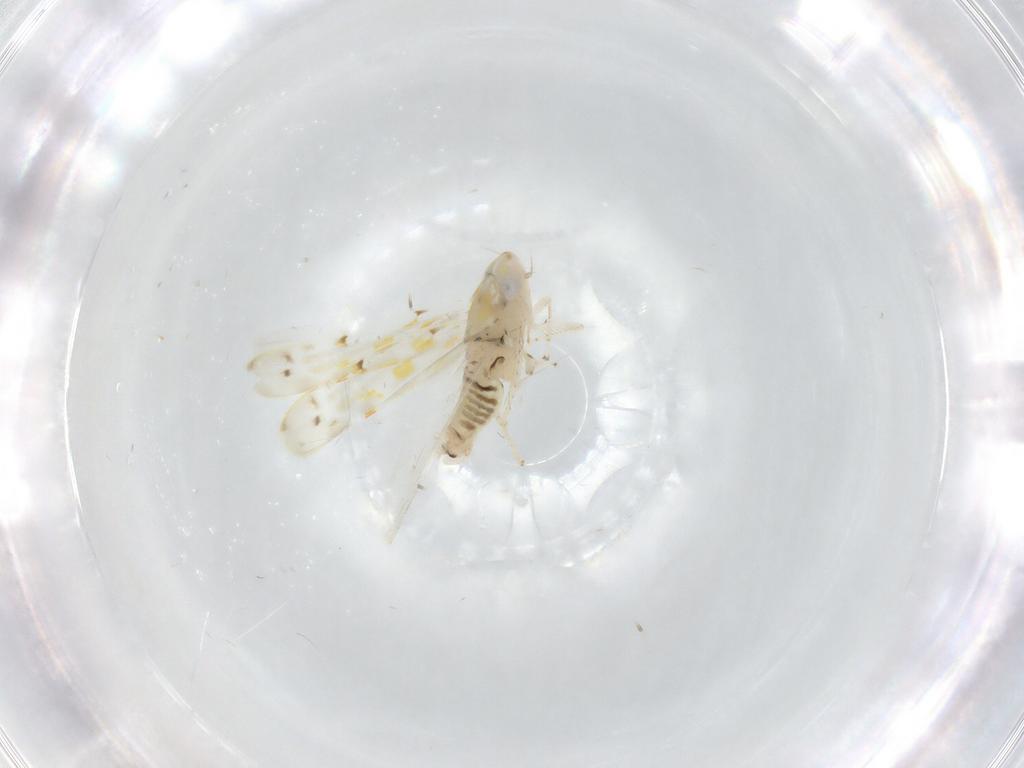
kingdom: Animalia
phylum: Arthropoda
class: Insecta
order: Hemiptera
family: Cicadellidae
